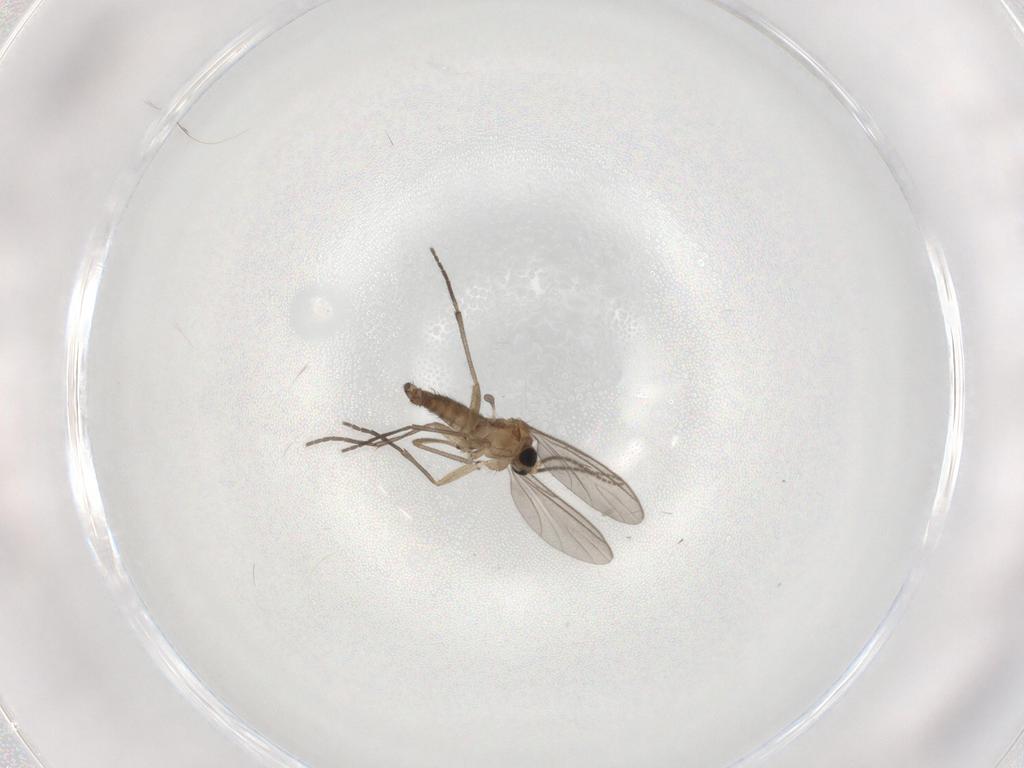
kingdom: Animalia
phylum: Arthropoda
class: Insecta
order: Diptera
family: Sciaridae
